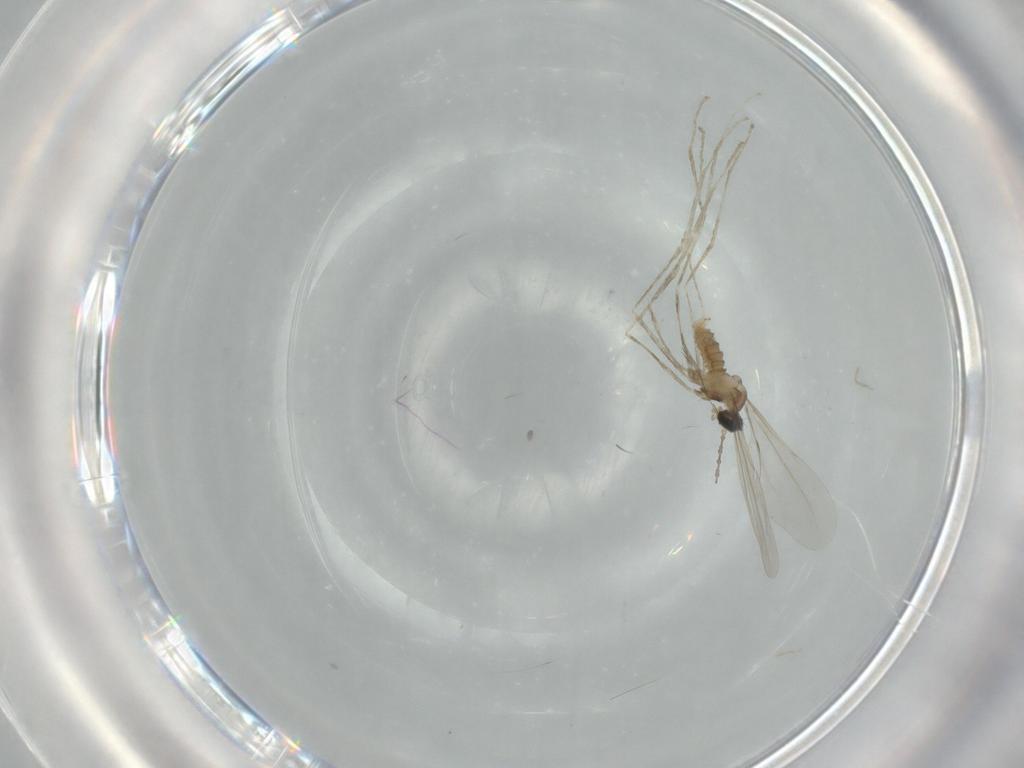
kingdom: Animalia
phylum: Arthropoda
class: Insecta
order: Diptera
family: Cecidomyiidae
